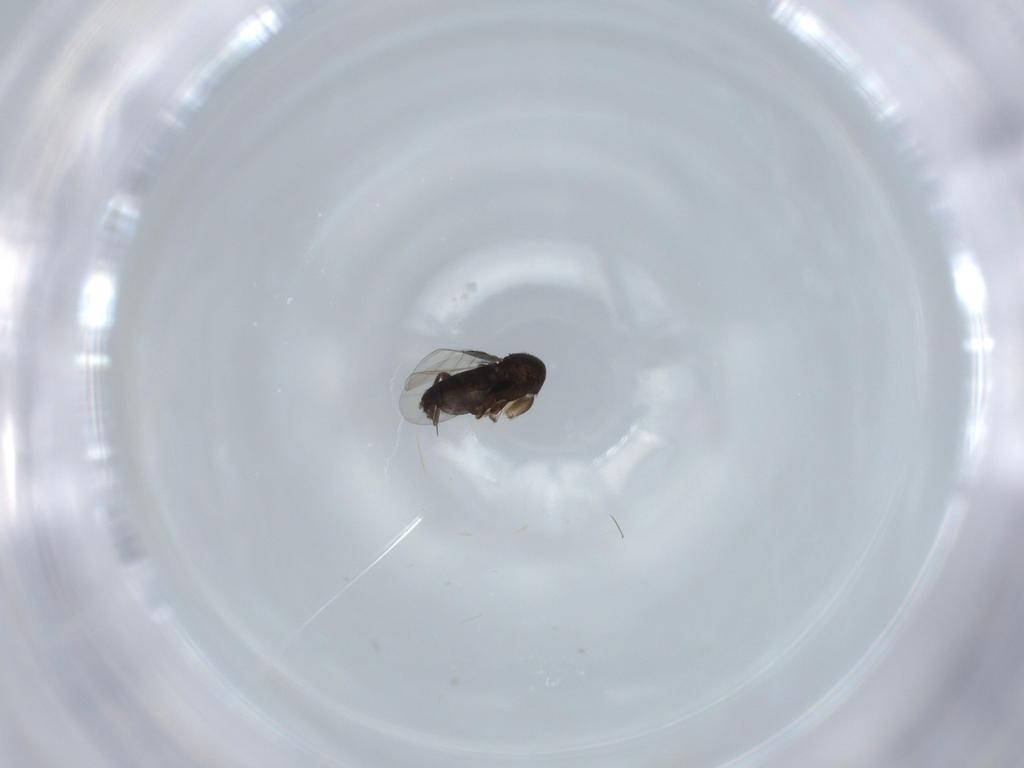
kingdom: Animalia
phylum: Arthropoda
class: Insecta
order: Diptera
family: Phoridae
